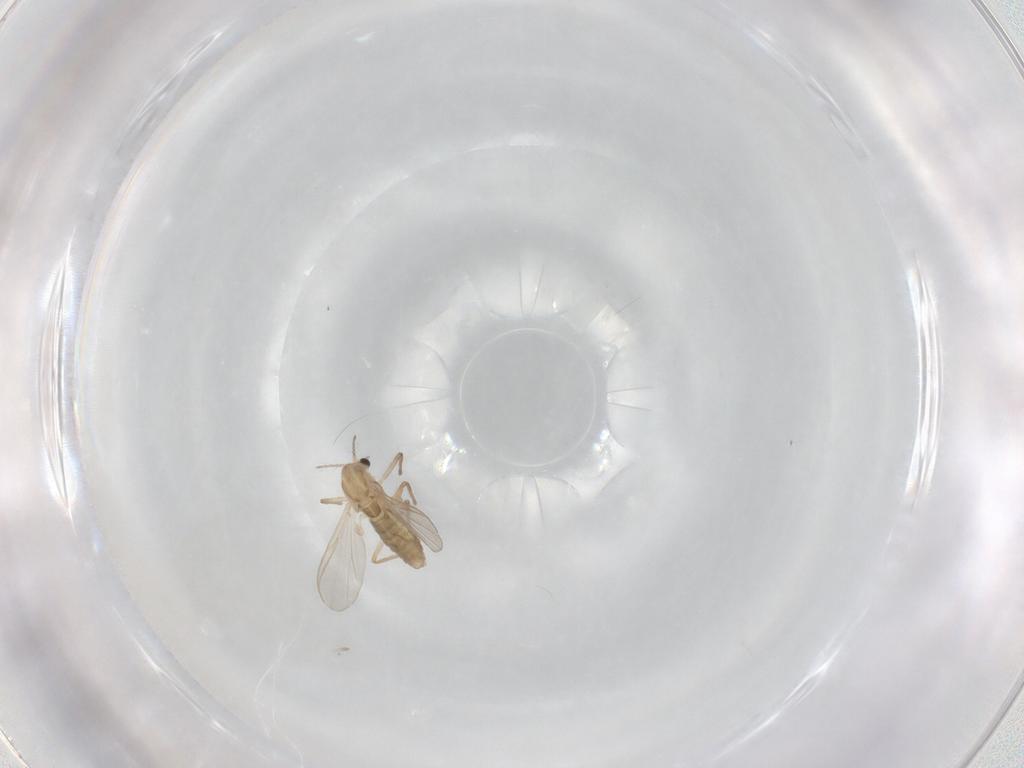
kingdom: Animalia
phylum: Arthropoda
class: Insecta
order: Diptera
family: Chironomidae
